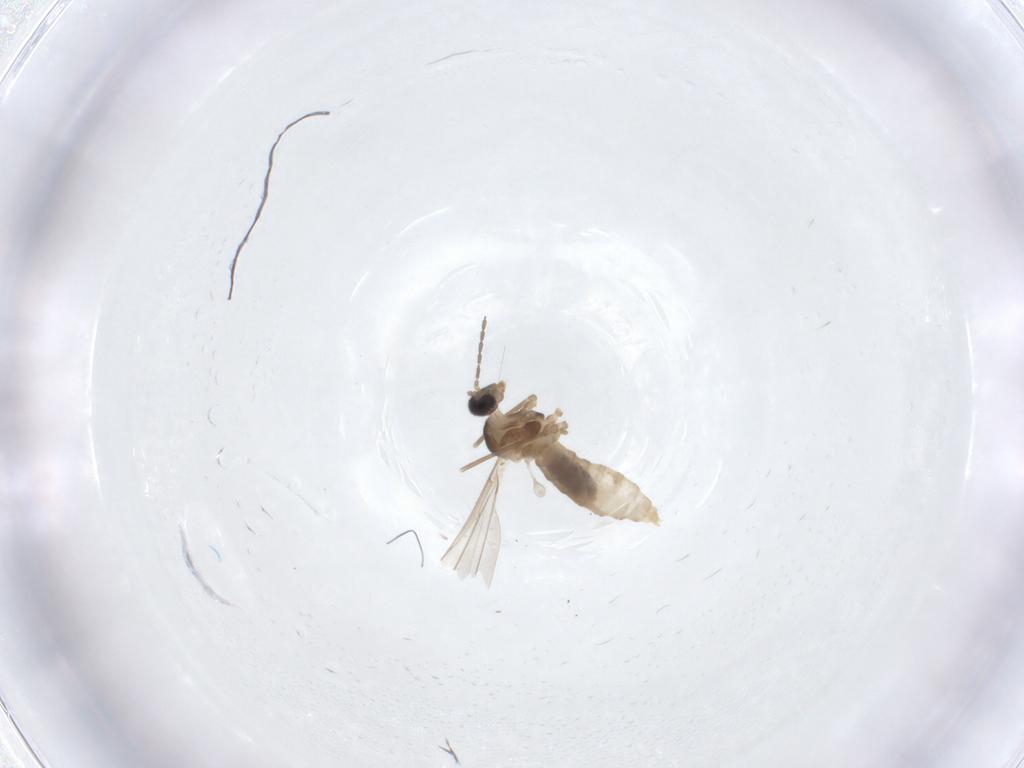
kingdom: Animalia
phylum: Arthropoda
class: Insecta
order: Diptera
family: Cecidomyiidae
